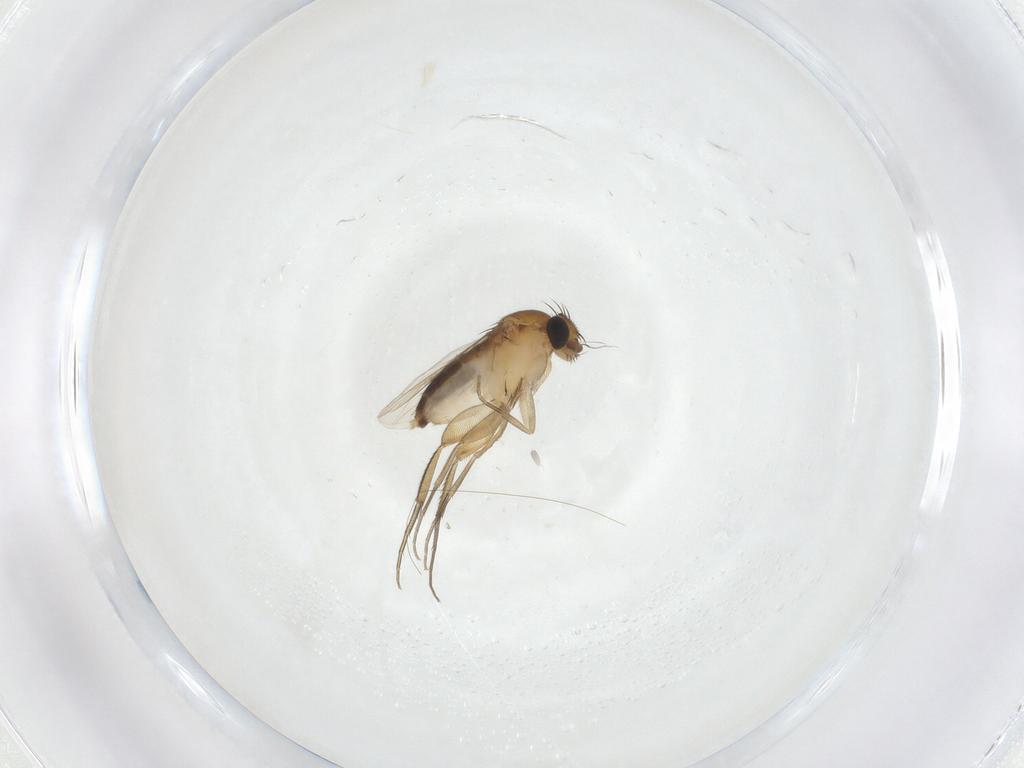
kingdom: Animalia
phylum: Arthropoda
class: Insecta
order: Diptera
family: Phoridae
